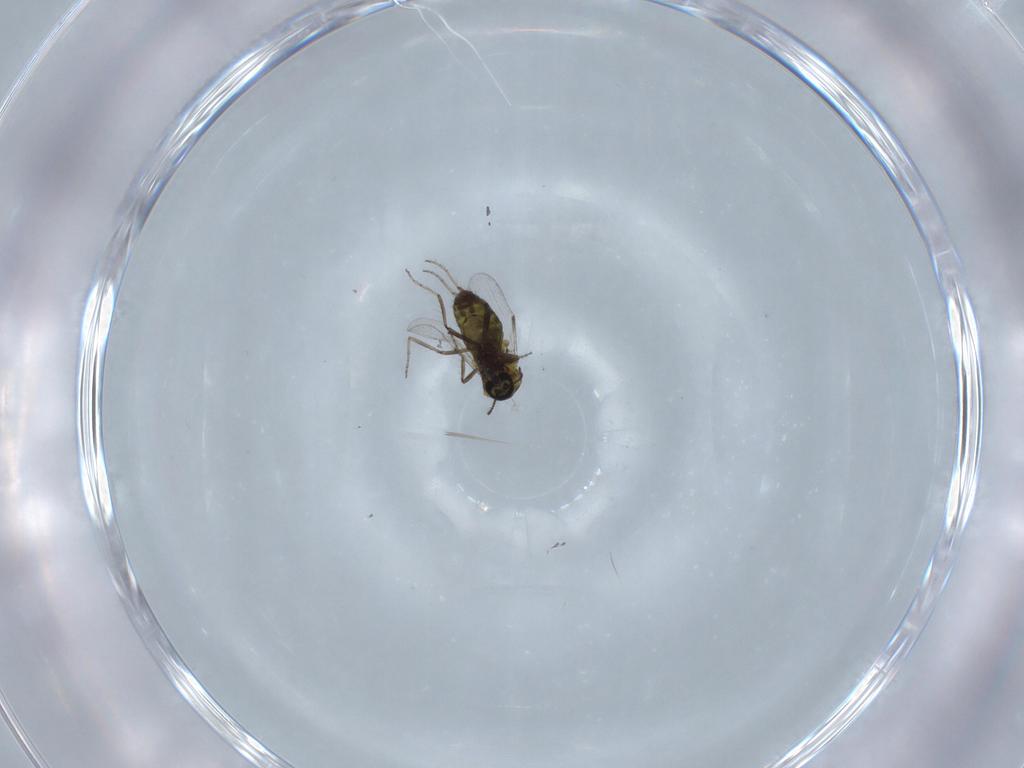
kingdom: Animalia
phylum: Arthropoda
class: Insecta
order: Diptera
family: Ceratopogonidae
